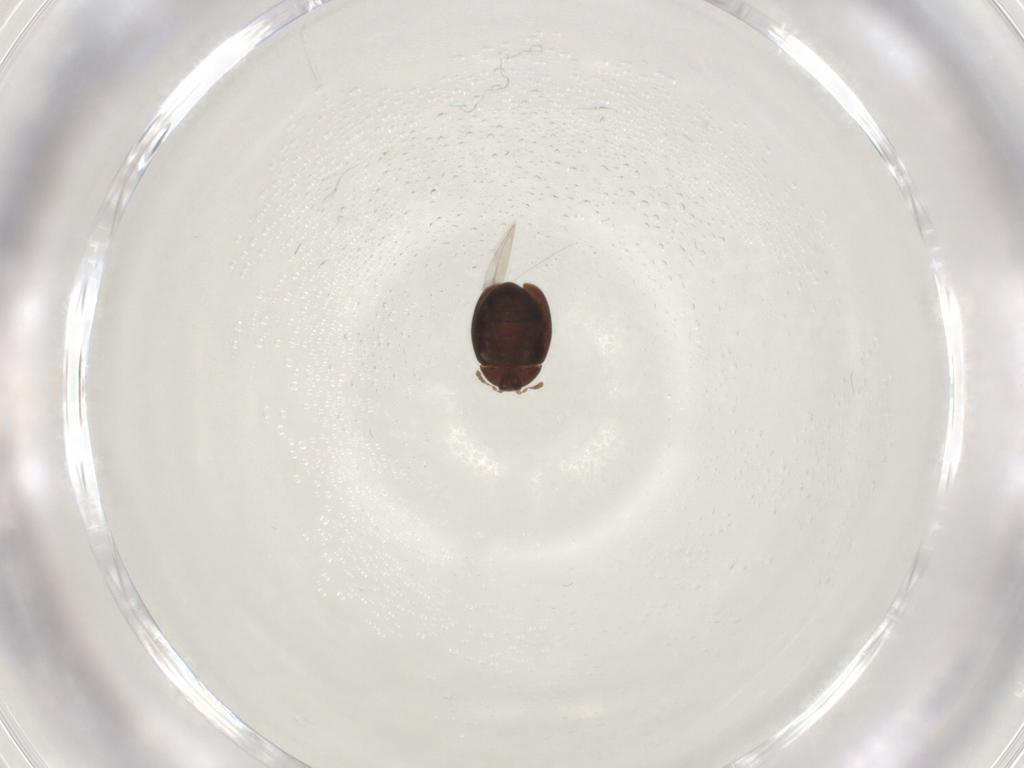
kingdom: Animalia
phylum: Arthropoda
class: Insecta
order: Coleoptera
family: Corylophidae
